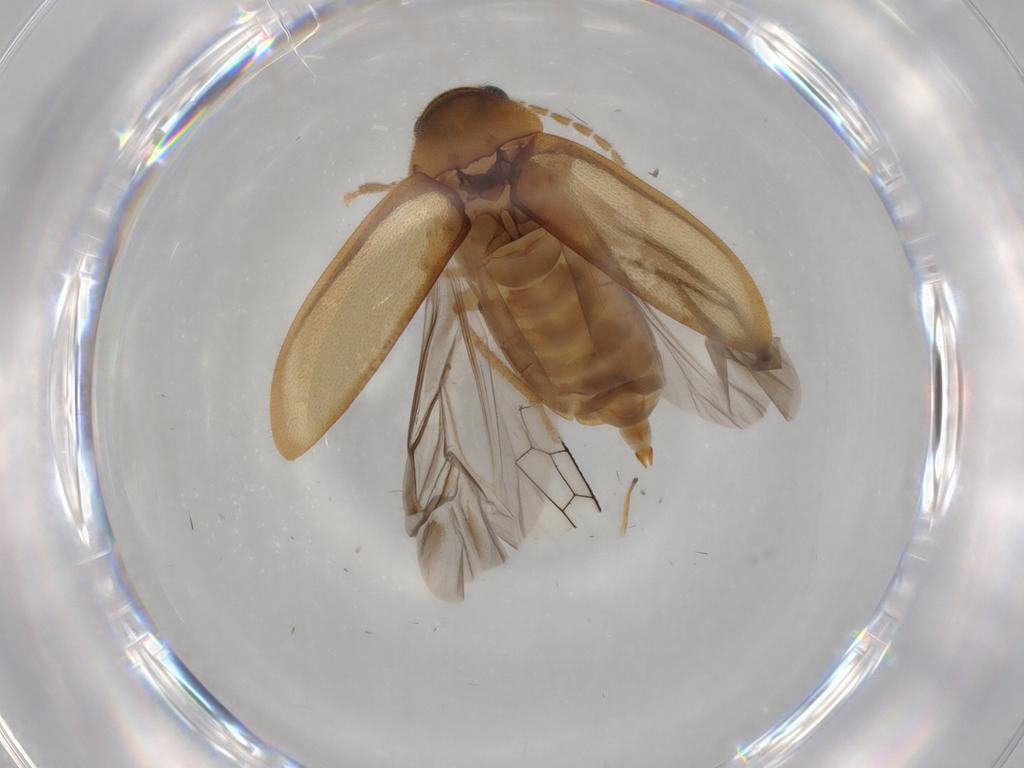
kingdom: Animalia
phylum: Arthropoda
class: Insecta
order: Coleoptera
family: Ptilodactylidae
